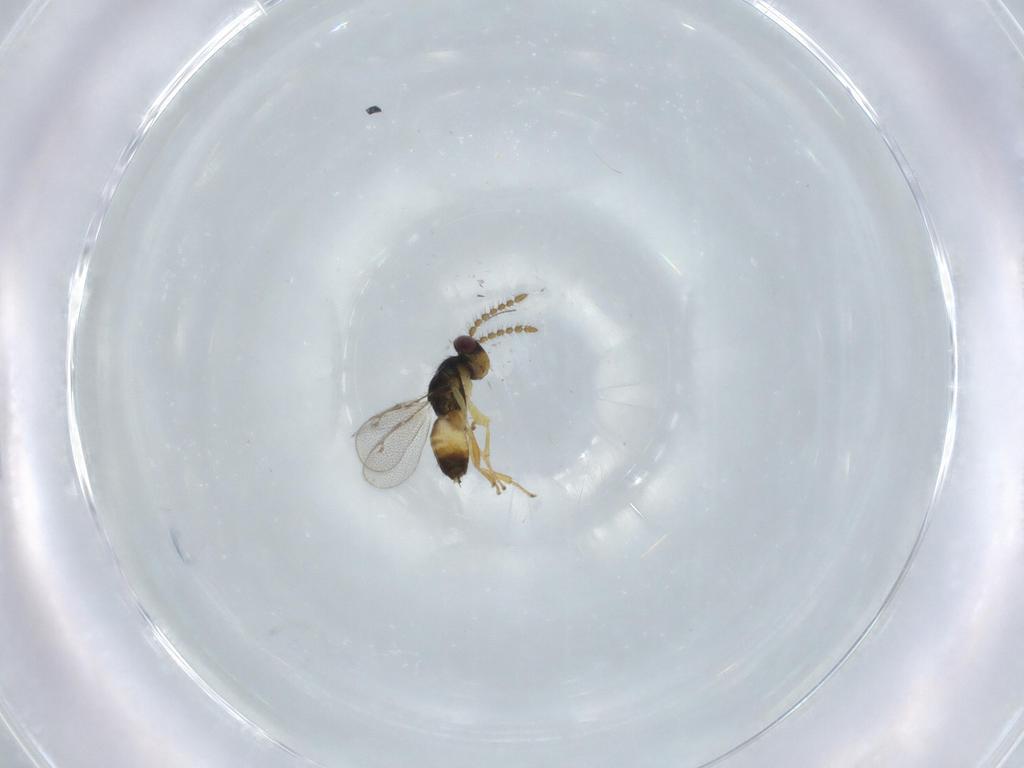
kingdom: Animalia
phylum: Arthropoda
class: Insecta
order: Hymenoptera
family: Pirenidae
